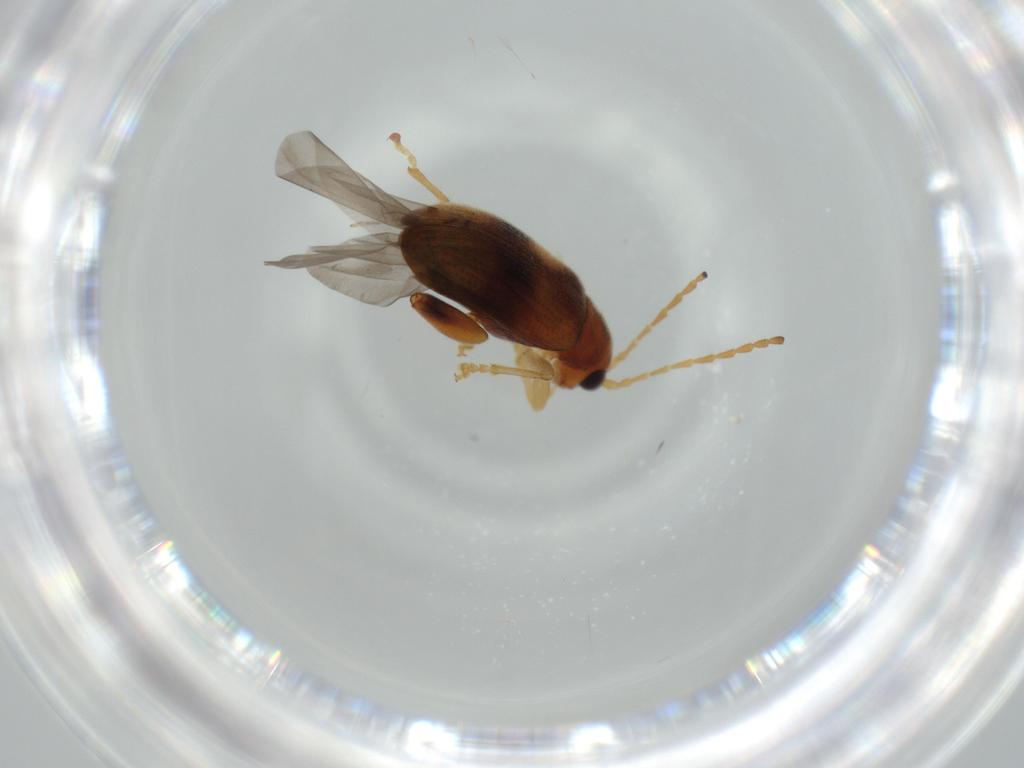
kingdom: Animalia
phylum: Arthropoda
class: Insecta
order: Coleoptera
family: Chrysomelidae
